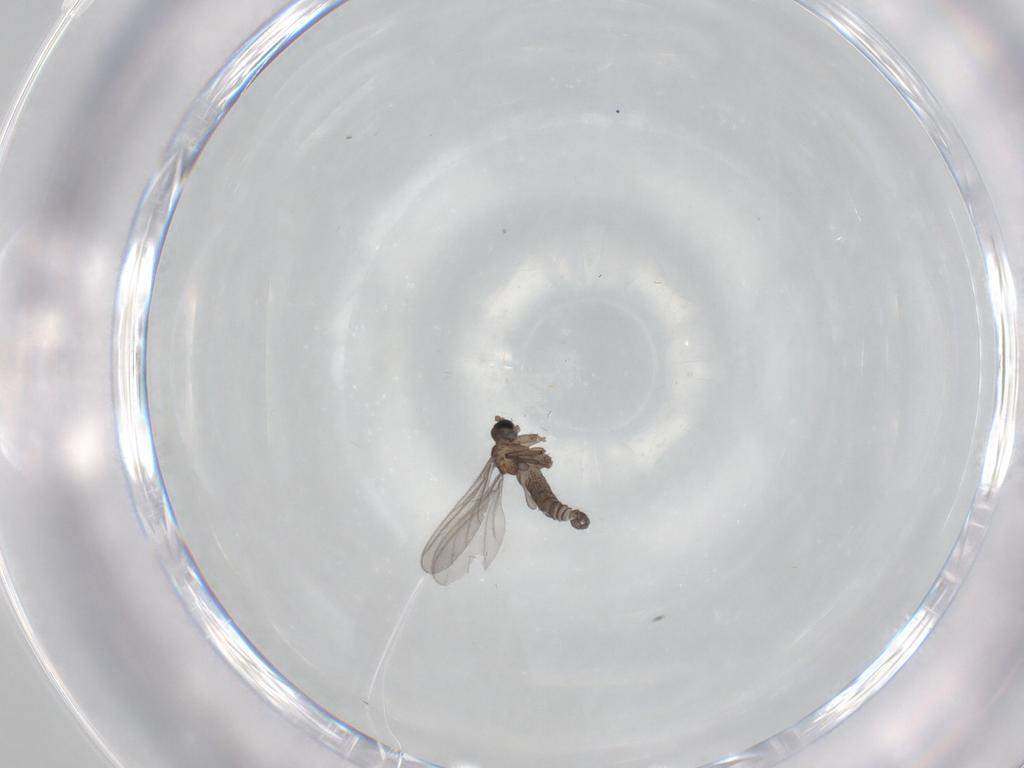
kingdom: Animalia
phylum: Arthropoda
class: Insecta
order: Diptera
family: Sciaridae
